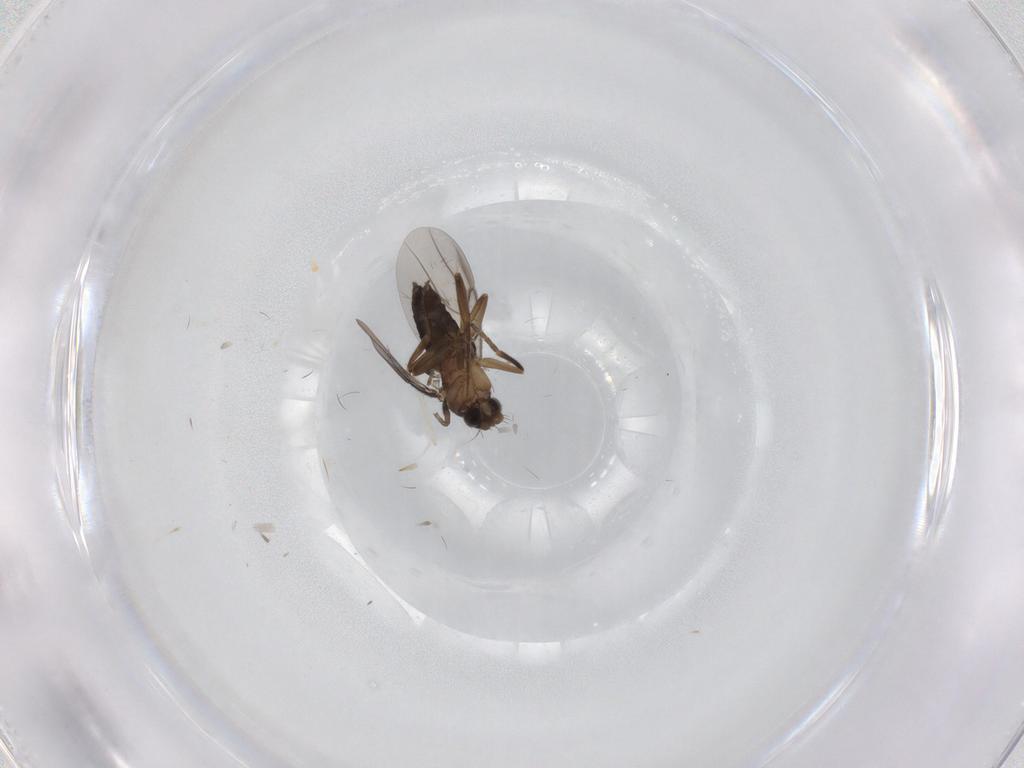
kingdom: Animalia
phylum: Arthropoda
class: Insecta
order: Diptera
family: Phoridae
